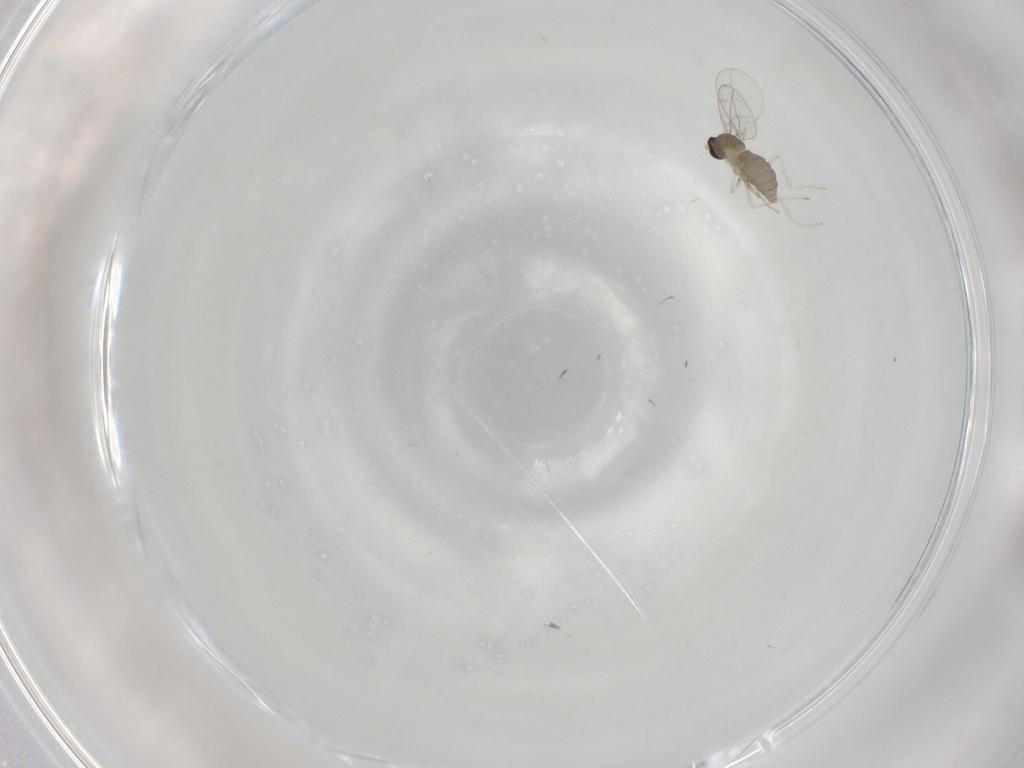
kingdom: Animalia
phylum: Arthropoda
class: Insecta
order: Diptera
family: Cecidomyiidae
